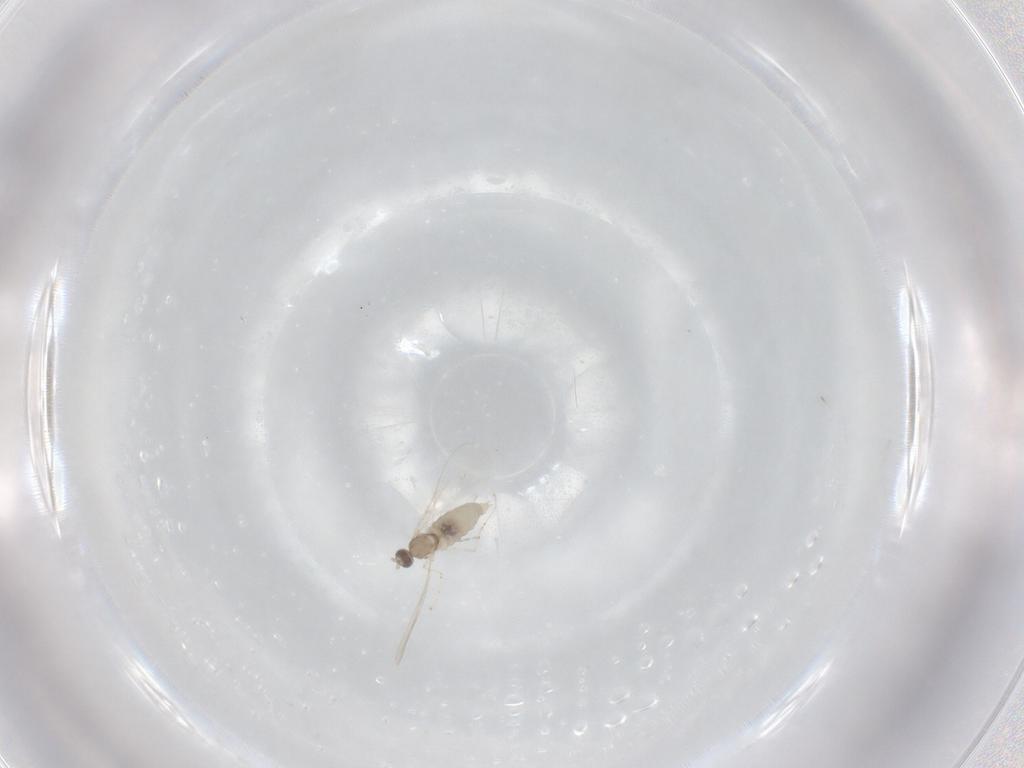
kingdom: Animalia
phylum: Arthropoda
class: Insecta
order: Diptera
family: Cecidomyiidae
